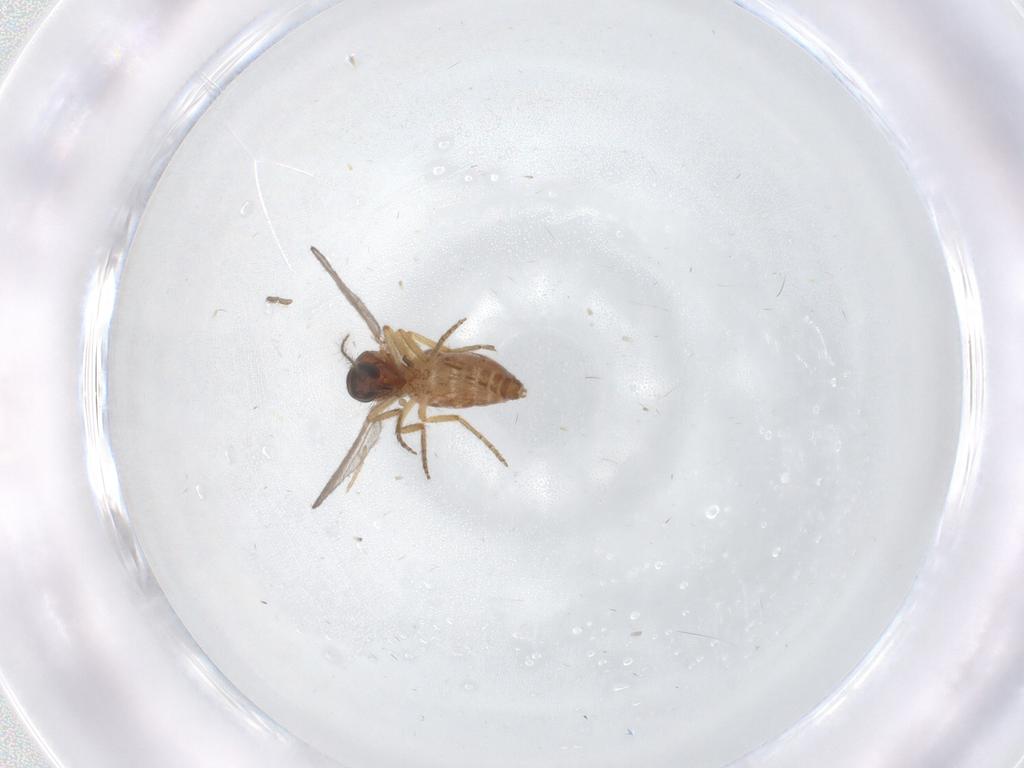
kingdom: Animalia
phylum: Arthropoda
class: Insecta
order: Diptera
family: Ceratopogonidae
